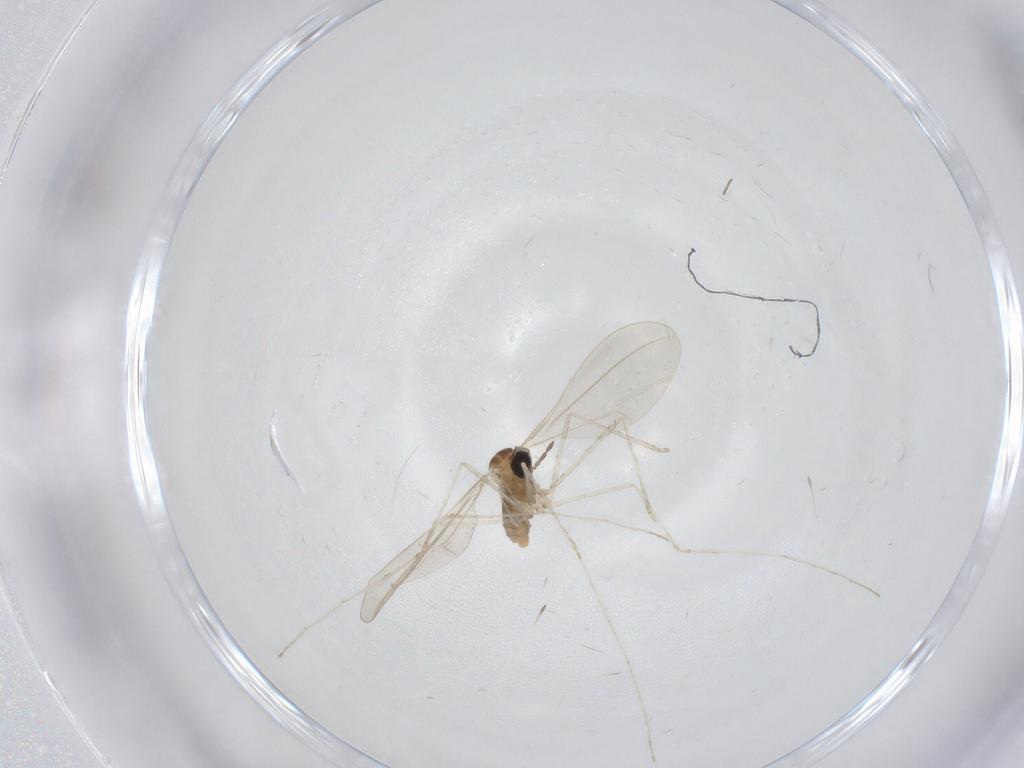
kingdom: Animalia
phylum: Arthropoda
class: Insecta
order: Diptera
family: Cecidomyiidae
